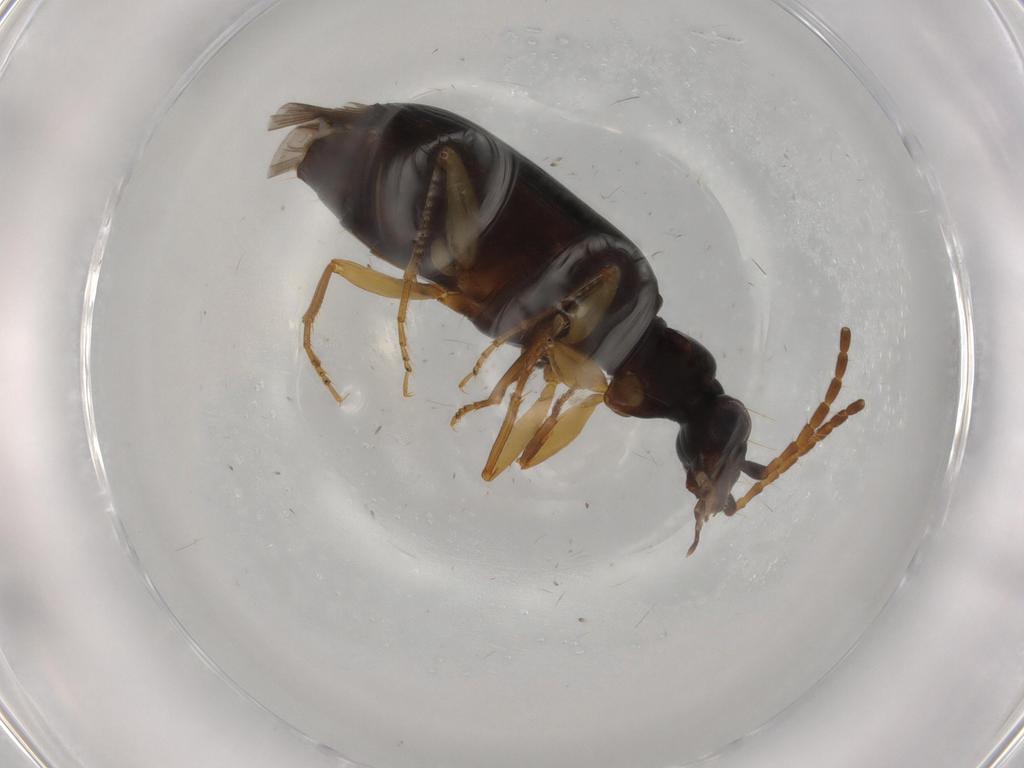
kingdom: Animalia
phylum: Arthropoda
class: Insecta
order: Coleoptera
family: Carabidae
